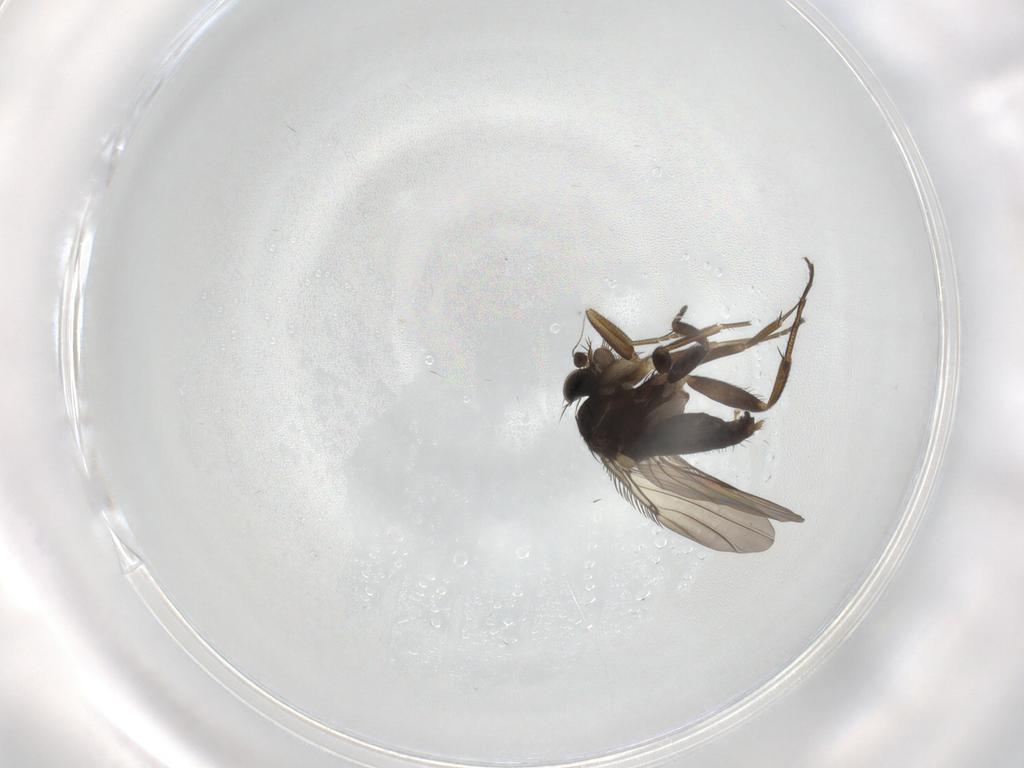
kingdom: Animalia
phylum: Arthropoda
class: Insecta
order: Diptera
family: Phoridae
